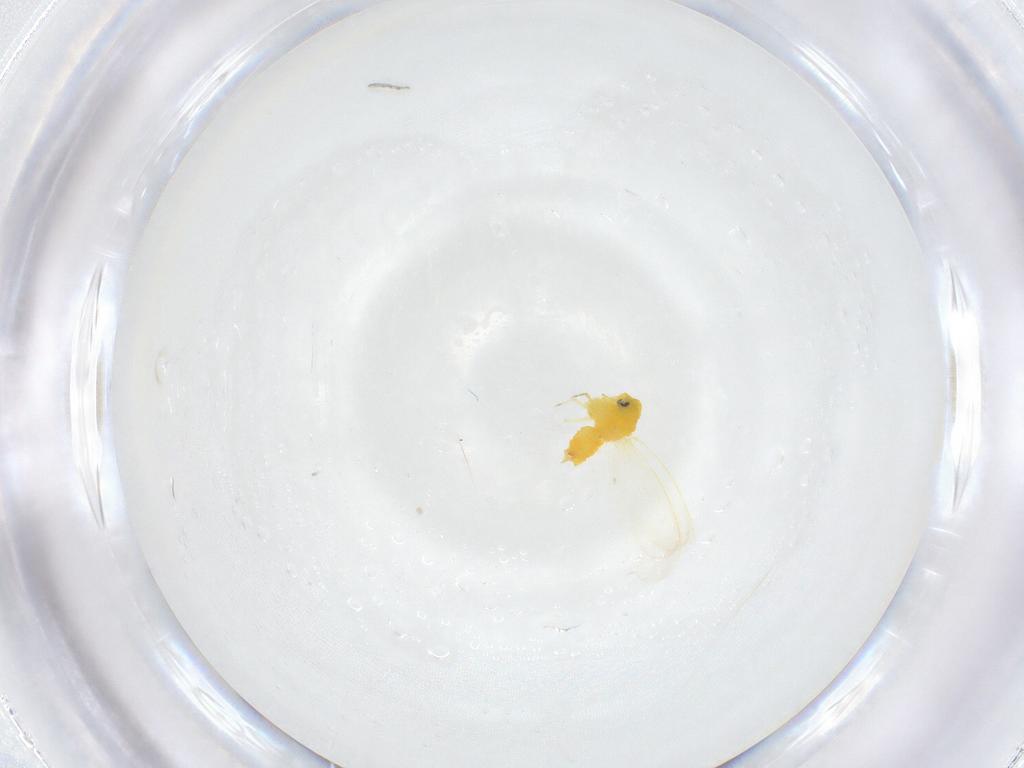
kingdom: Animalia
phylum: Arthropoda
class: Insecta
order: Hemiptera
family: Aleyrodidae
